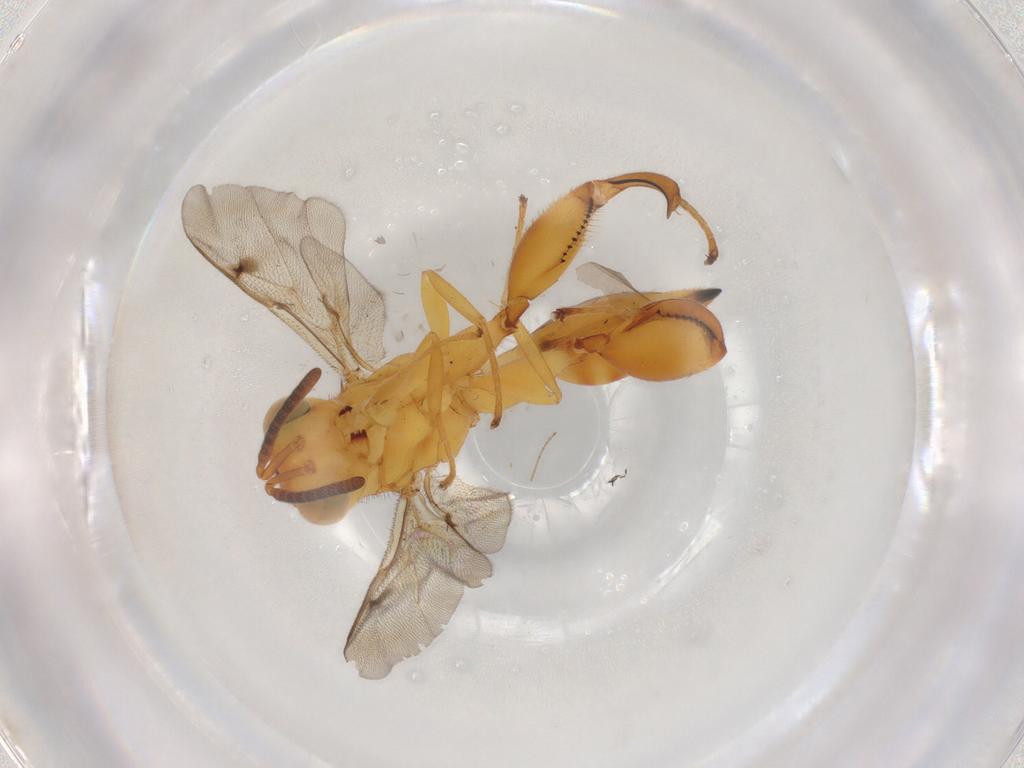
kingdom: Animalia
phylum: Arthropoda
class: Insecta
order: Hymenoptera
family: Chalcididae
